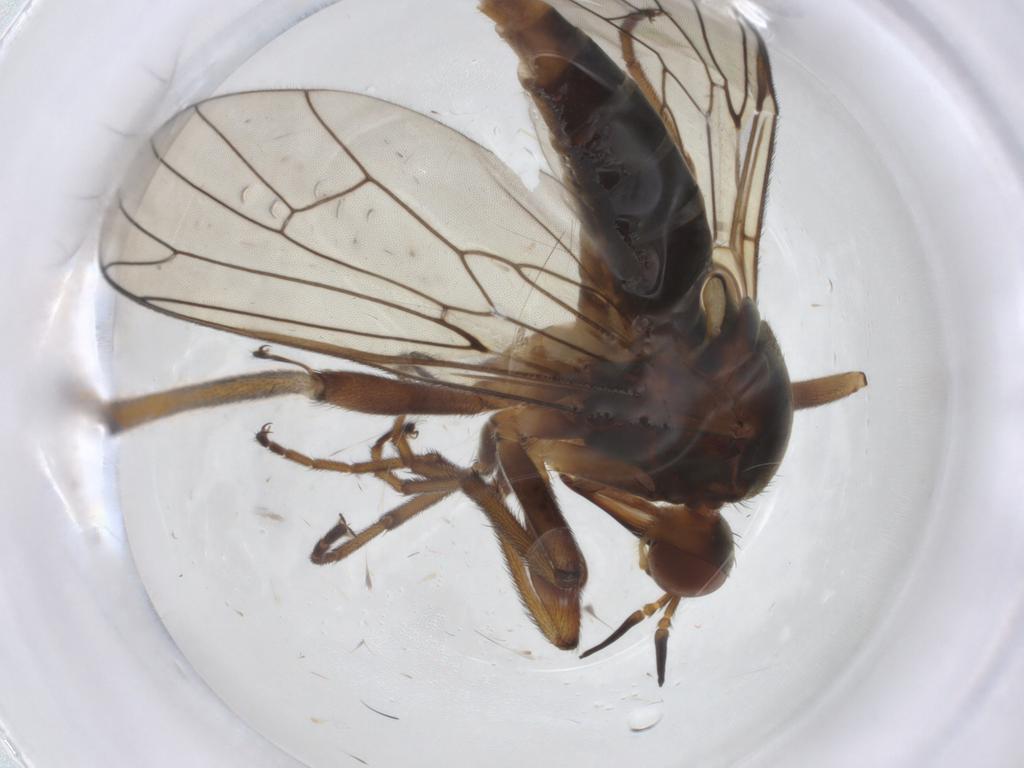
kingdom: Animalia
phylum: Arthropoda
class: Insecta
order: Diptera
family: Empididae
